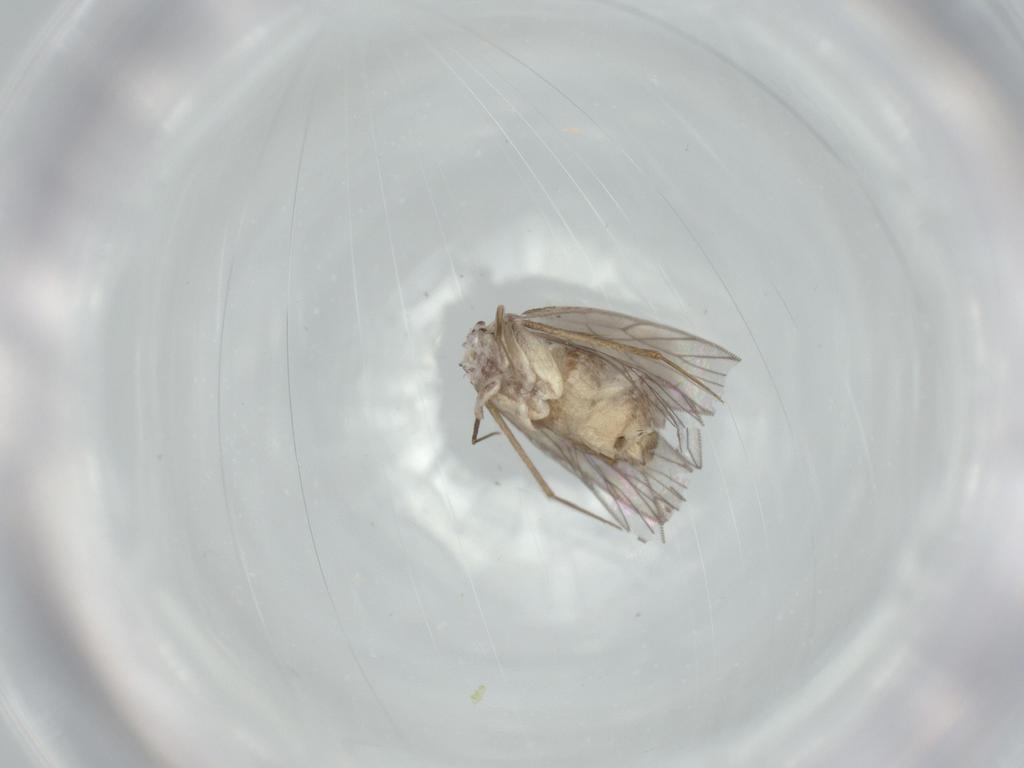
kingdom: Animalia
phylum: Arthropoda
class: Insecta
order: Psocodea
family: Lepidopsocidae
